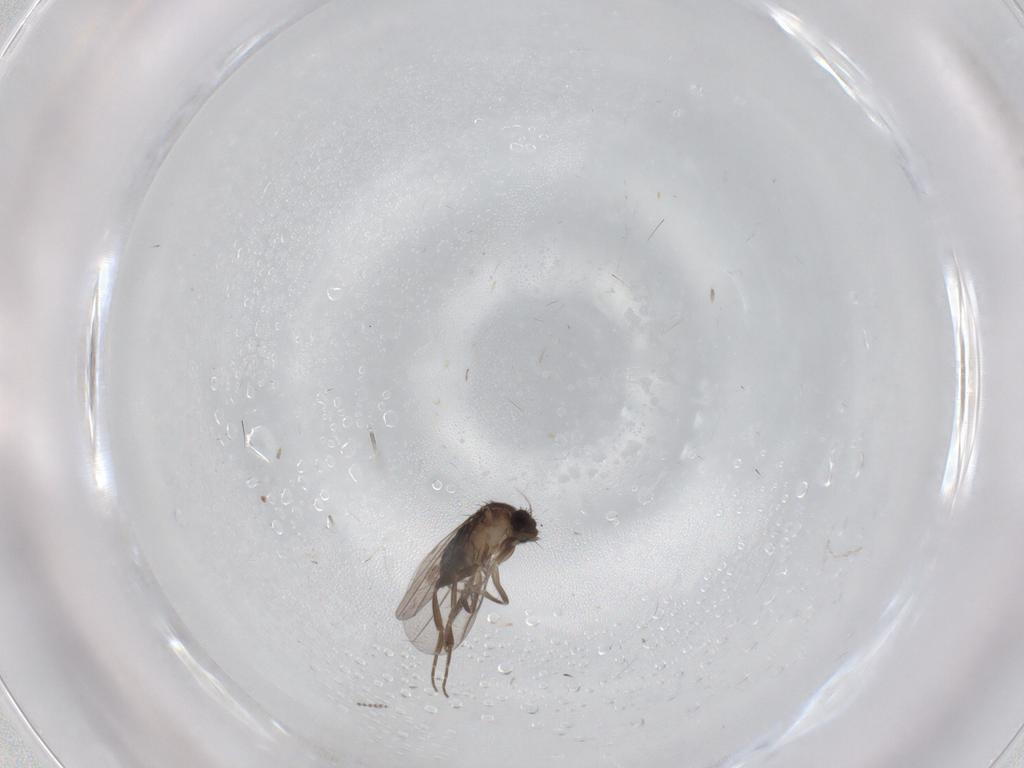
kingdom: Animalia
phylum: Arthropoda
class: Insecta
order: Diptera
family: Psychodidae
